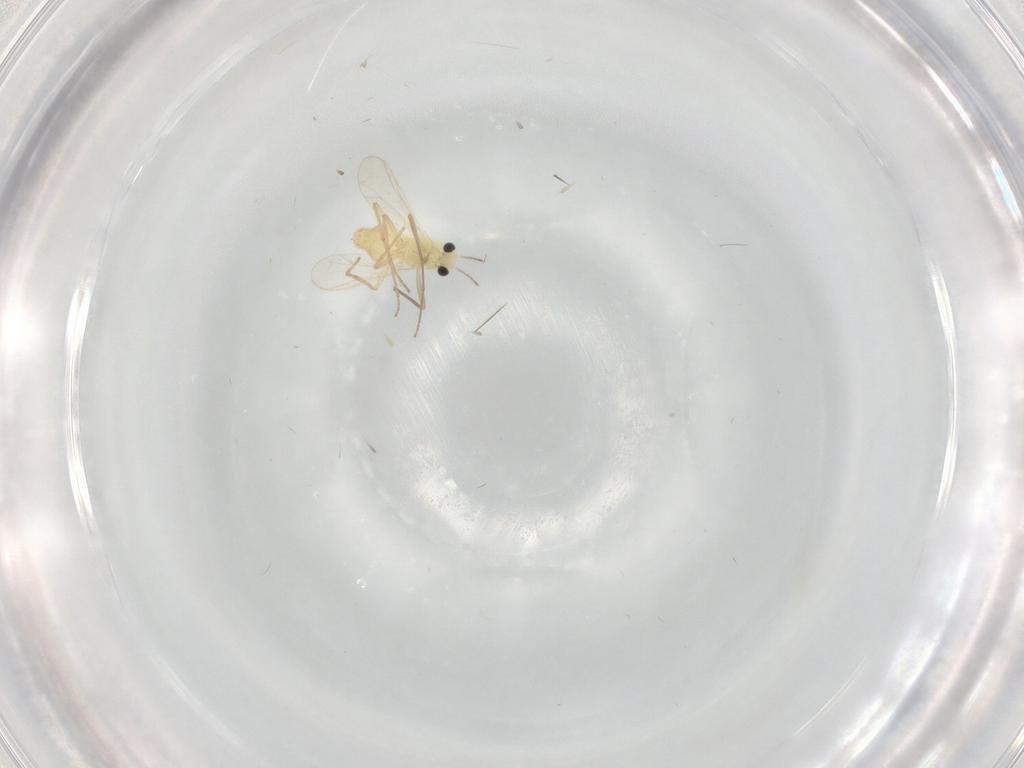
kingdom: Animalia
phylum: Arthropoda
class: Insecta
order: Diptera
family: Chironomidae
